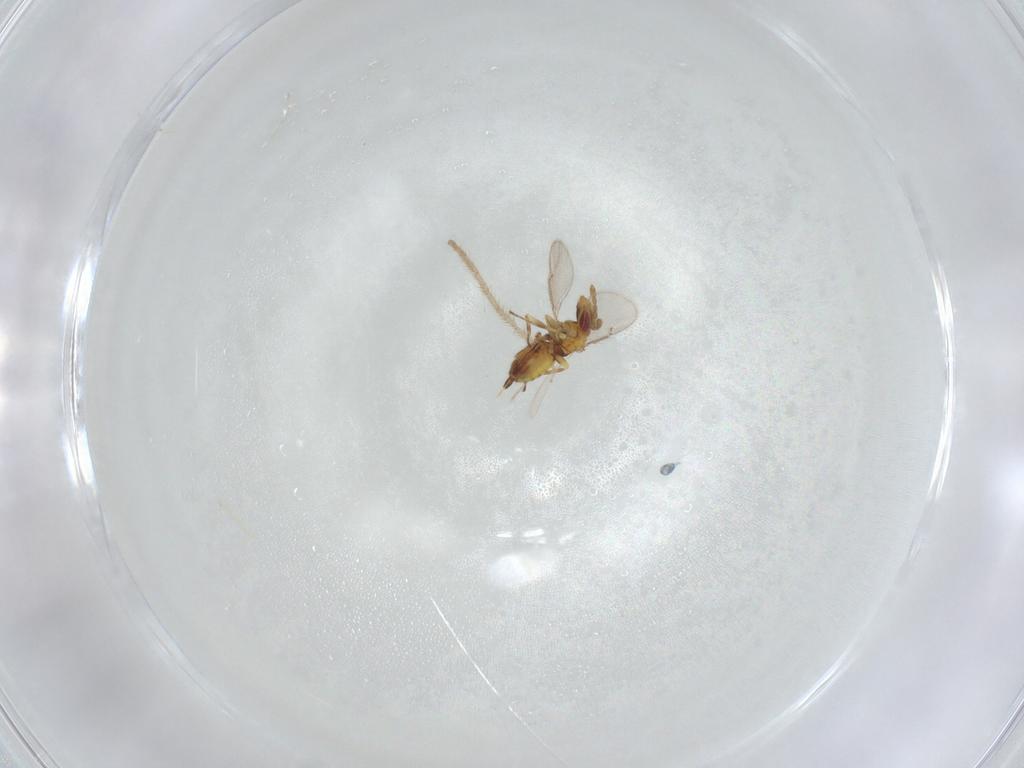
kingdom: Animalia
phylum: Arthropoda
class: Insecta
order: Hymenoptera
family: Eulophidae
